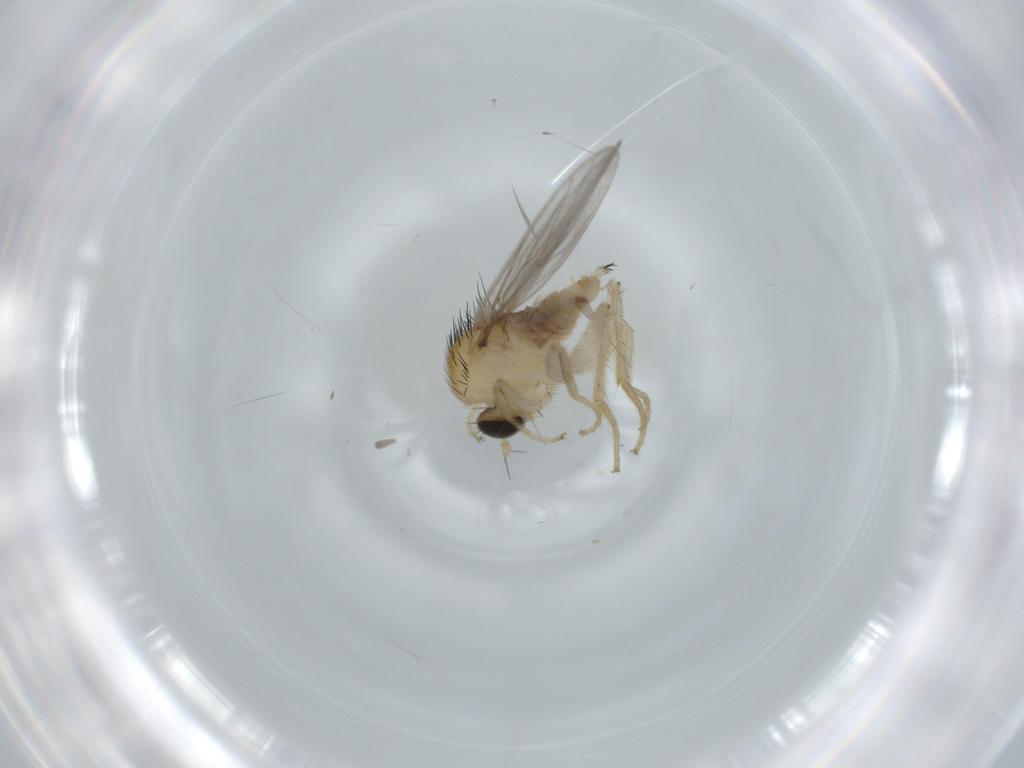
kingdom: Animalia
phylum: Arthropoda
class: Insecta
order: Diptera
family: Hybotidae
